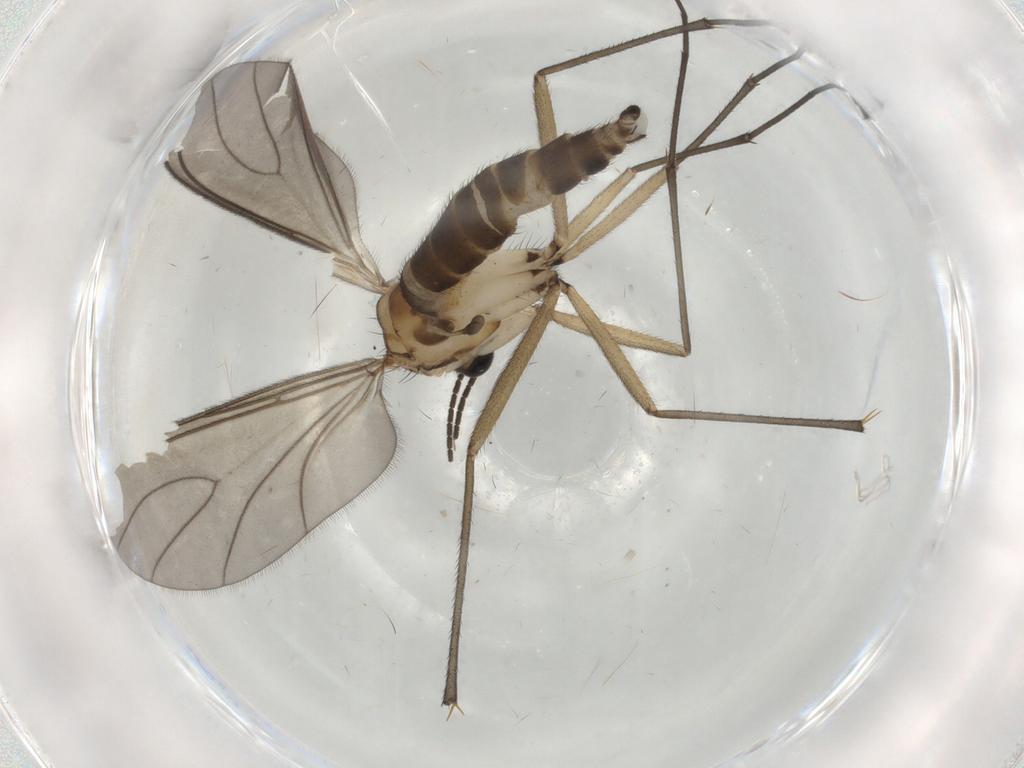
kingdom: Animalia
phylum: Arthropoda
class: Insecta
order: Diptera
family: Sciaridae
